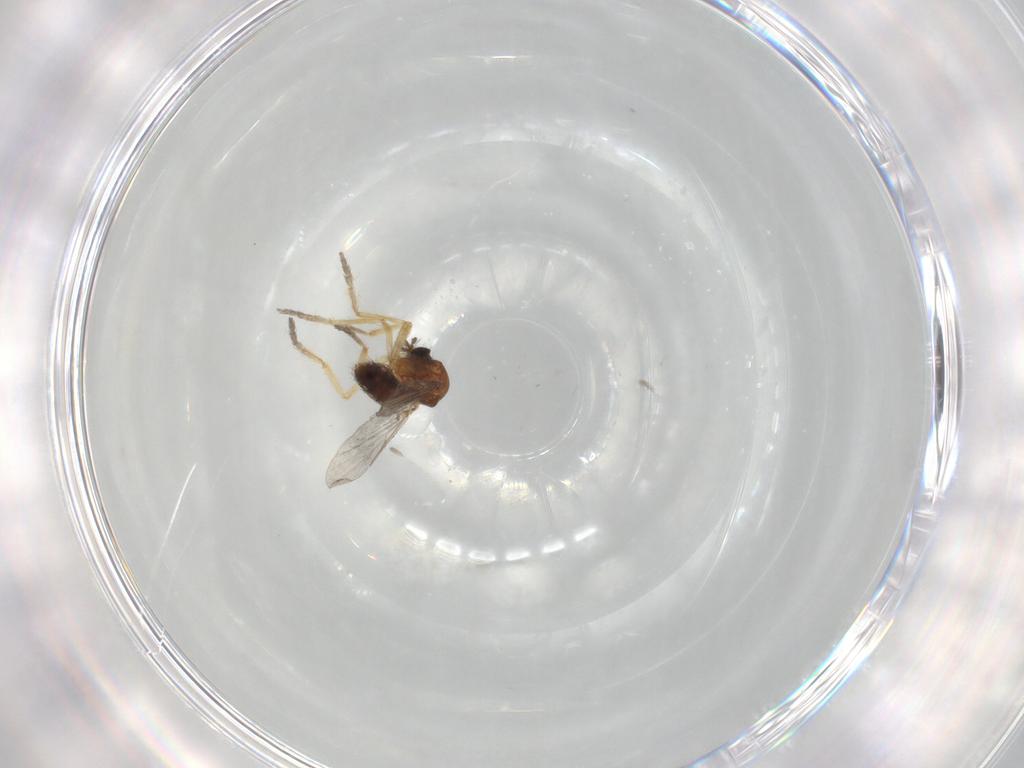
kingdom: Animalia
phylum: Arthropoda
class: Insecta
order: Diptera
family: Ceratopogonidae
